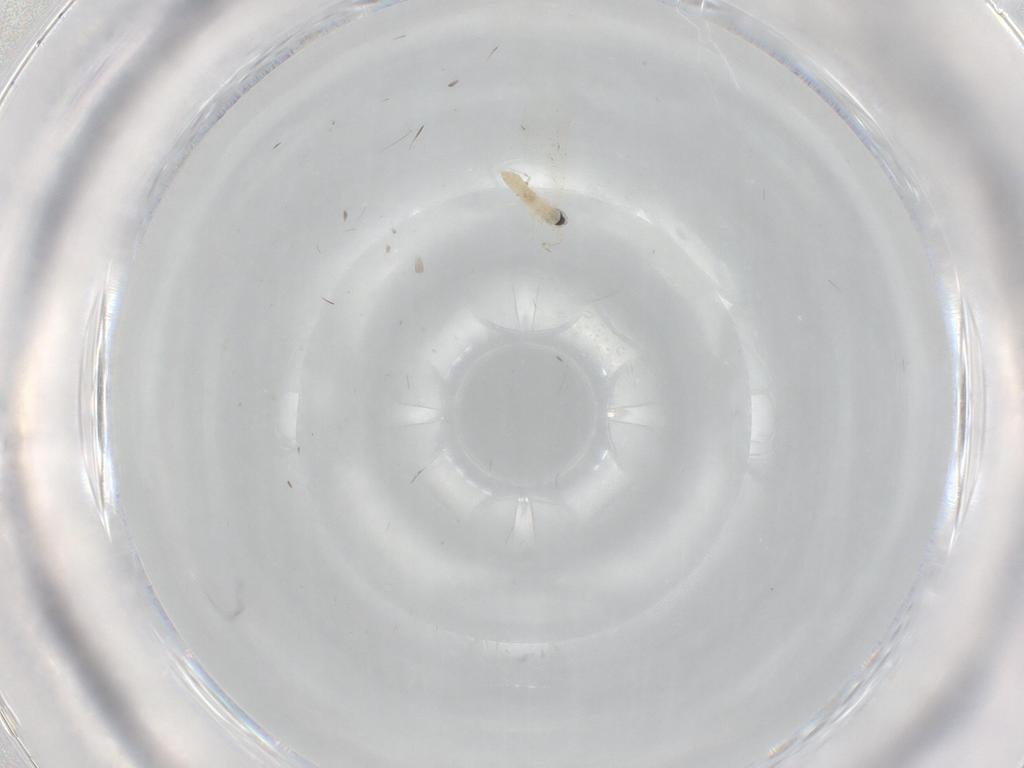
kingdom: Animalia
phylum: Arthropoda
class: Insecta
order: Diptera
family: Cecidomyiidae
